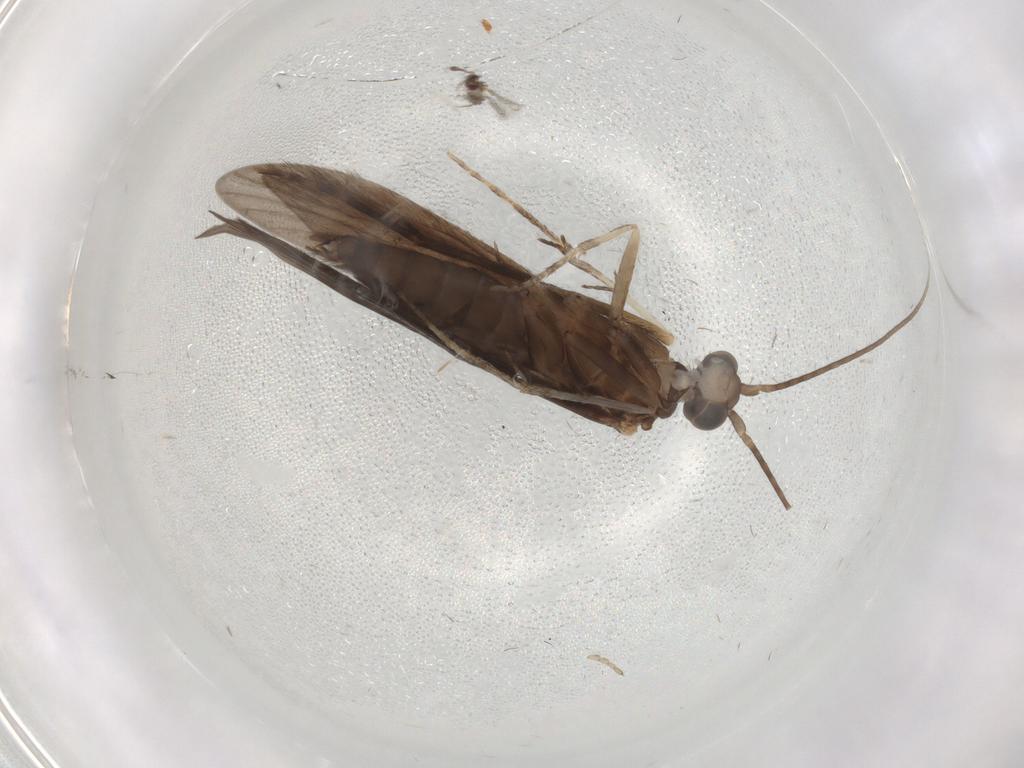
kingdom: Animalia
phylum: Arthropoda
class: Insecta
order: Trichoptera
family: Xiphocentronidae
